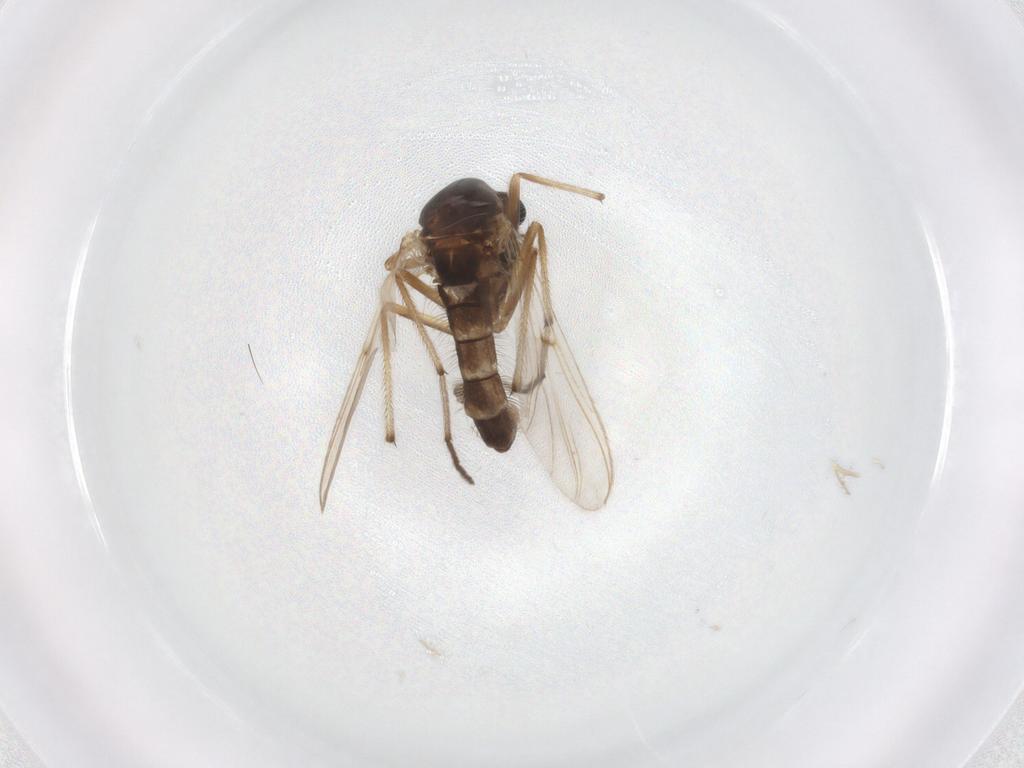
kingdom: Animalia
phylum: Arthropoda
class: Insecta
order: Diptera
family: Chironomidae
